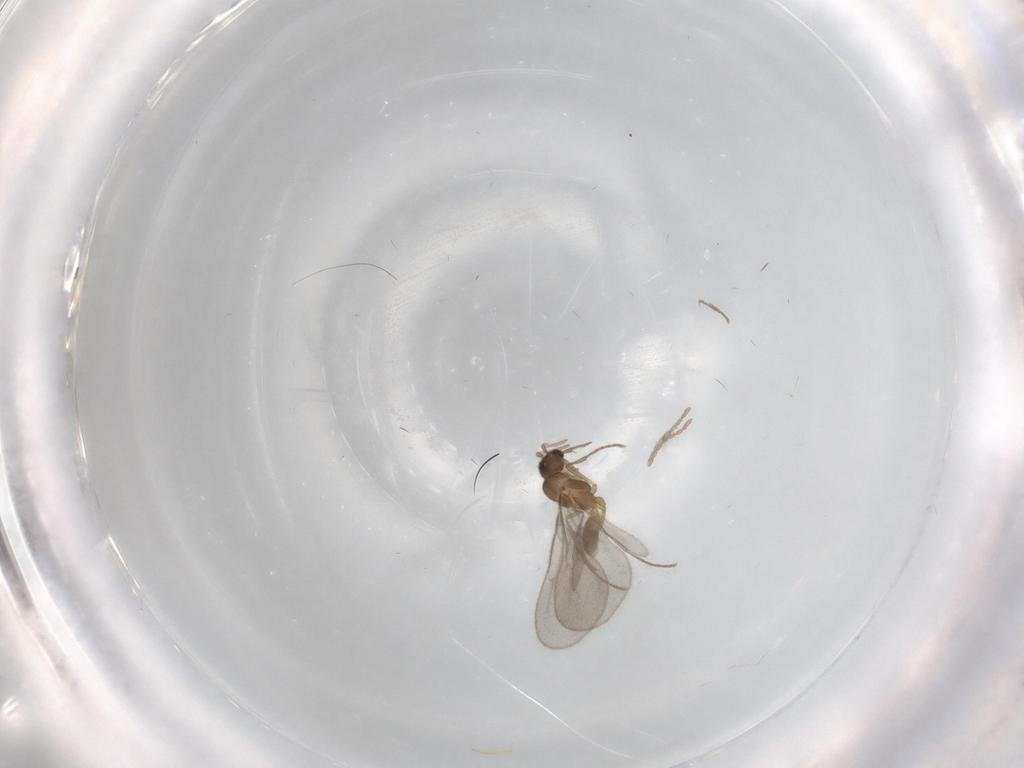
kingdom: Animalia
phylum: Arthropoda
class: Insecta
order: Hymenoptera
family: Formicidae
